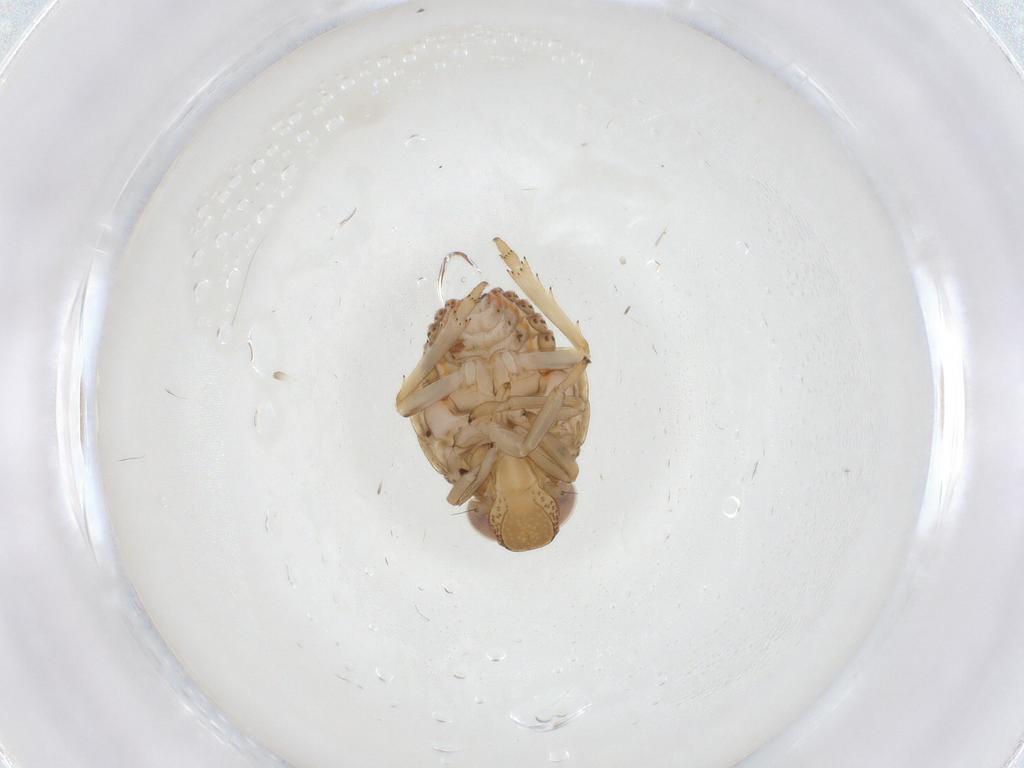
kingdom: Animalia
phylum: Arthropoda
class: Insecta
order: Hemiptera
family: Issidae
